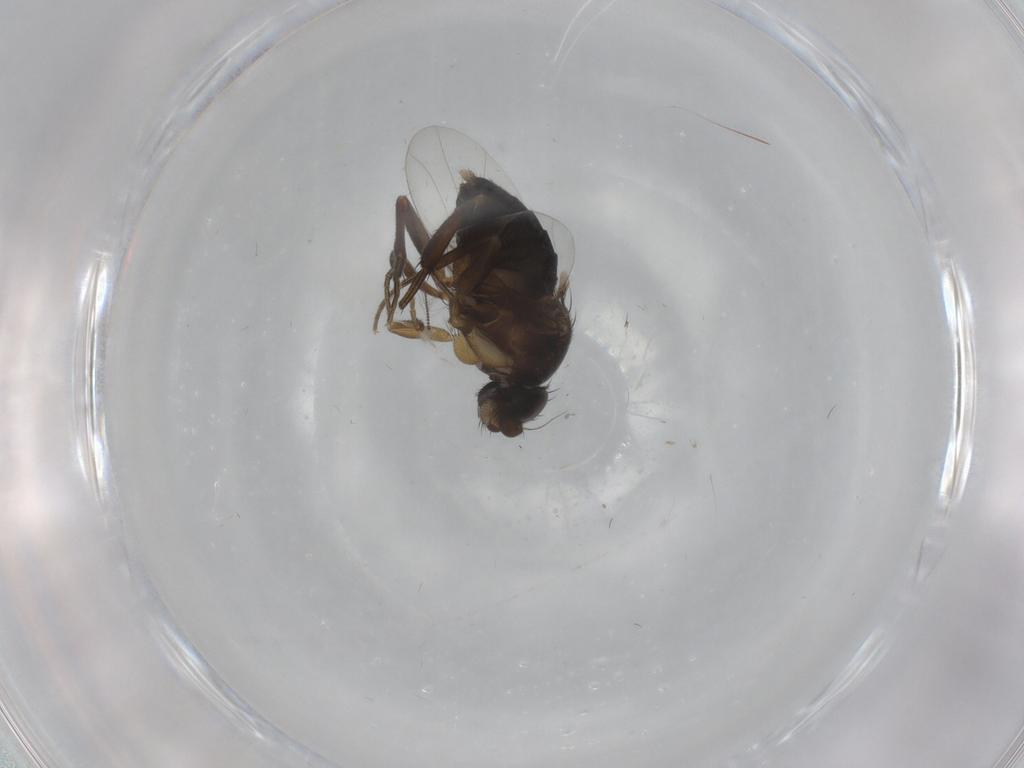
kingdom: Animalia
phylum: Arthropoda
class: Insecta
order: Diptera
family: Phoridae
